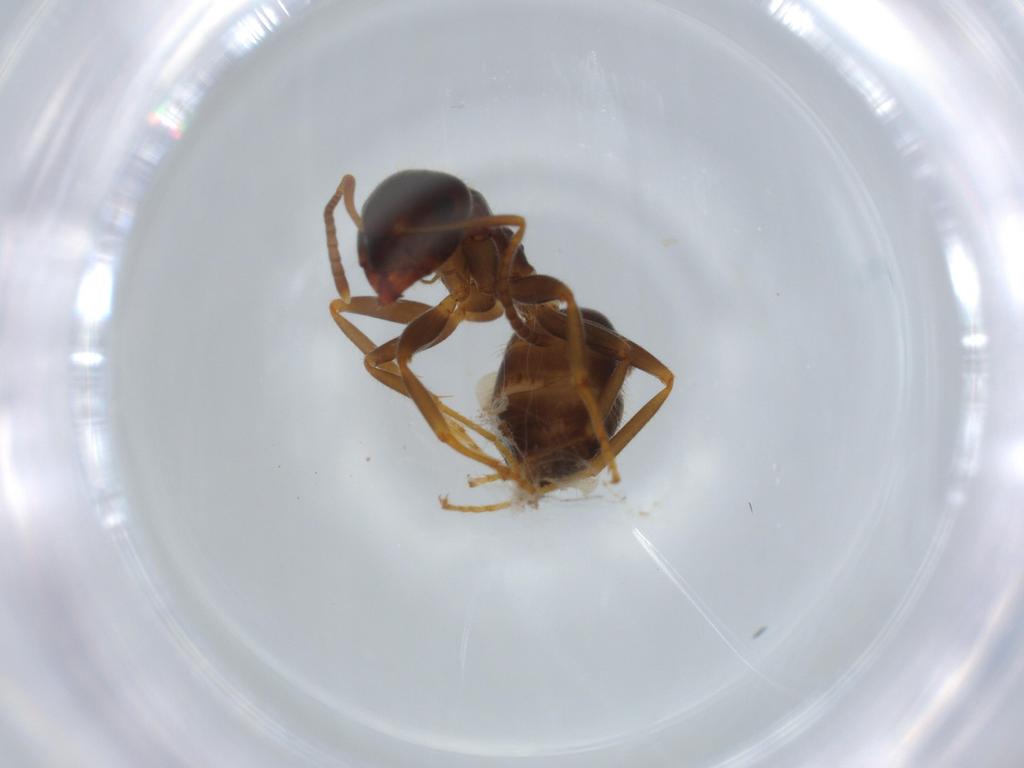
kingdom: Animalia
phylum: Arthropoda
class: Insecta
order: Hymenoptera
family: Formicidae
